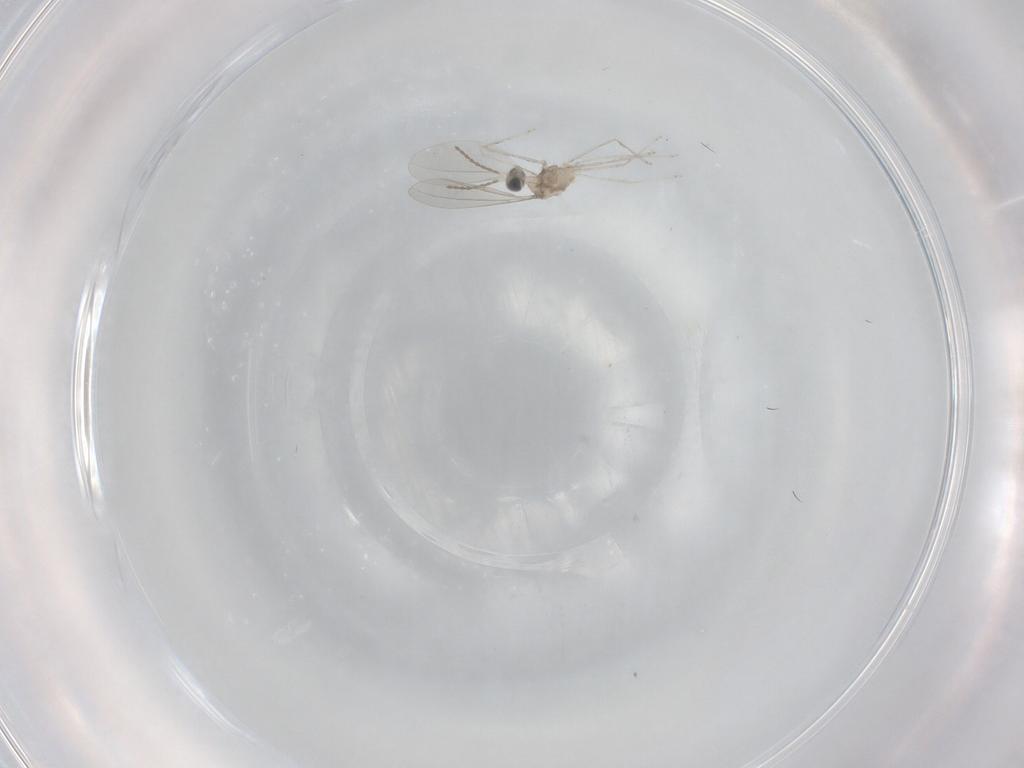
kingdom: Animalia
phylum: Arthropoda
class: Insecta
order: Diptera
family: Cecidomyiidae
